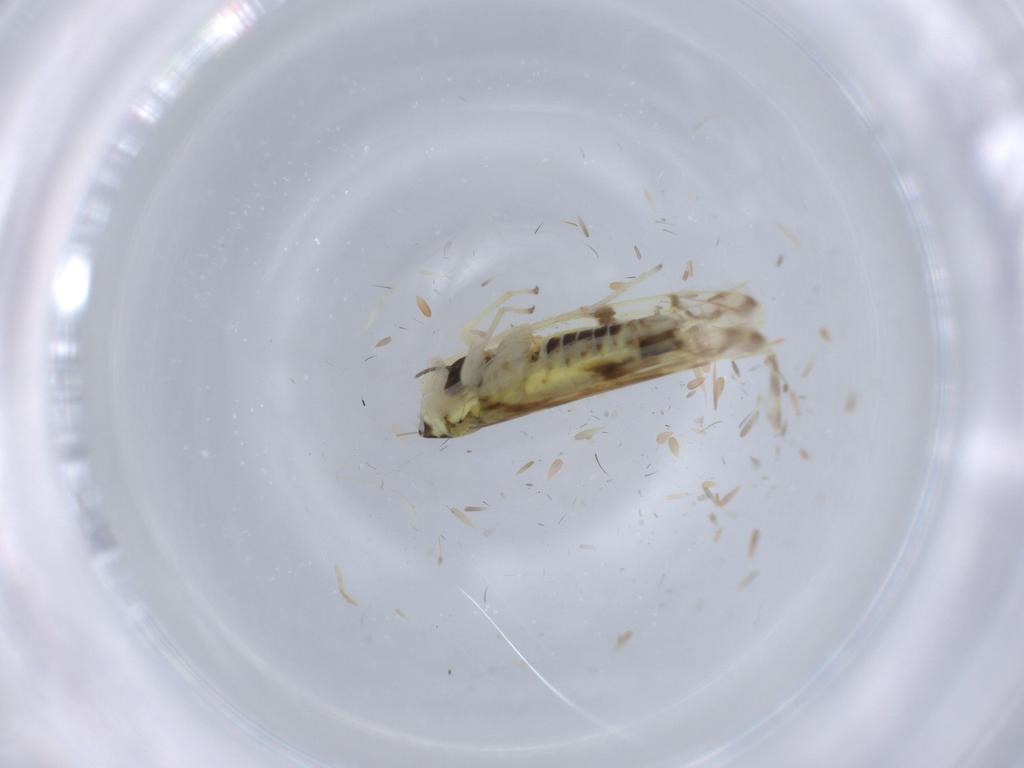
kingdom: Animalia
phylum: Arthropoda
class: Insecta
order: Hemiptera
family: Cicadellidae
